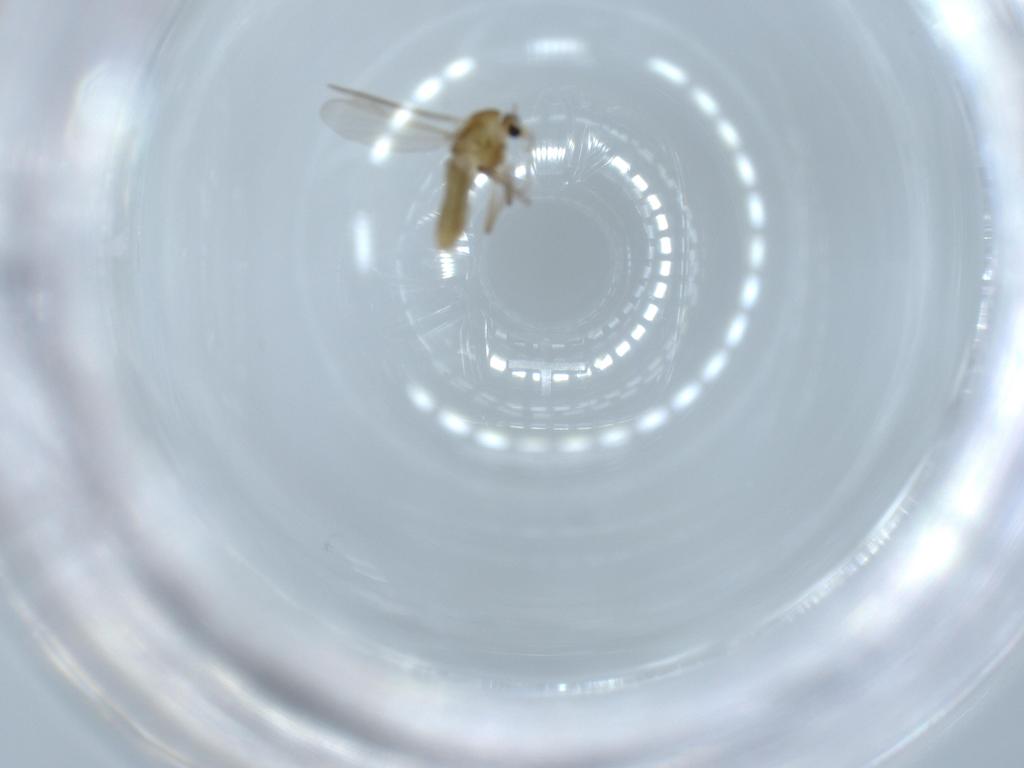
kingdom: Animalia
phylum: Arthropoda
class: Insecta
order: Diptera
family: Chironomidae
